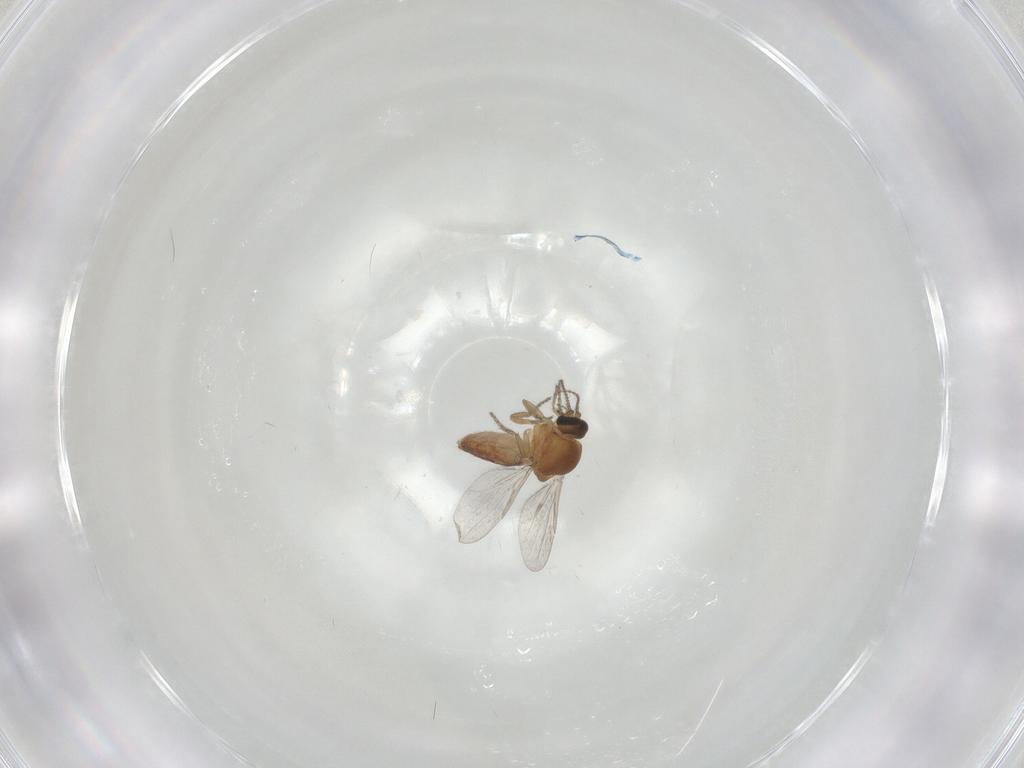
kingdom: Animalia
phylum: Arthropoda
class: Insecta
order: Diptera
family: Ceratopogonidae
